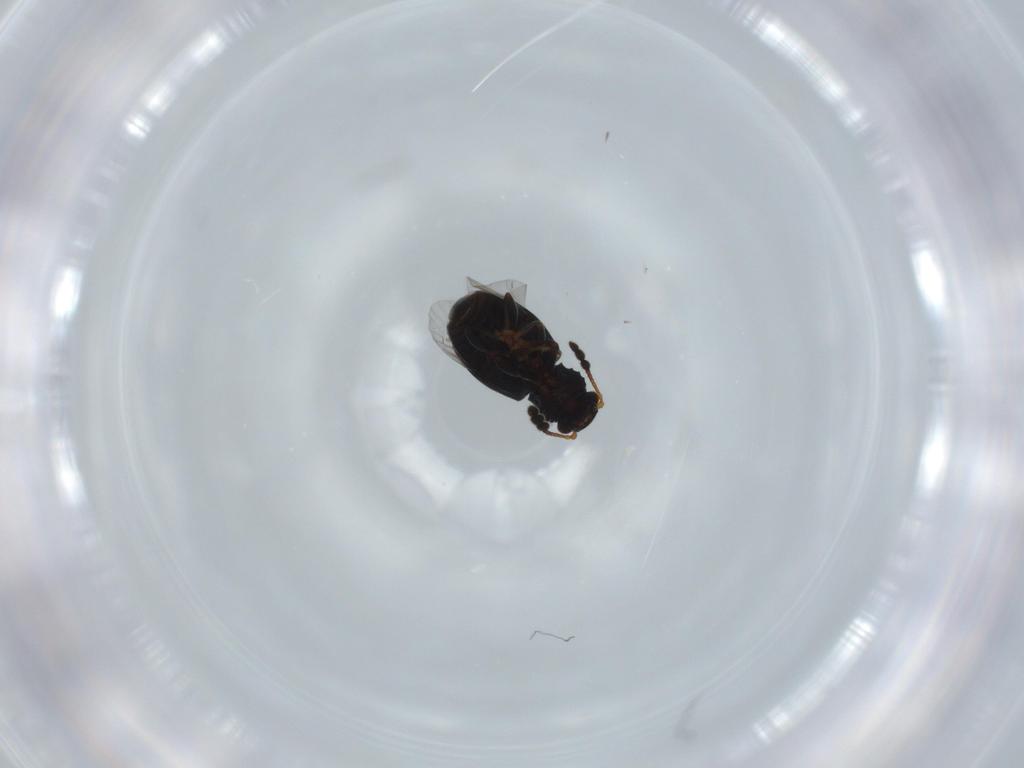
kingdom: Animalia
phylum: Arthropoda
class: Insecta
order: Coleoptera
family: Salpingidae
